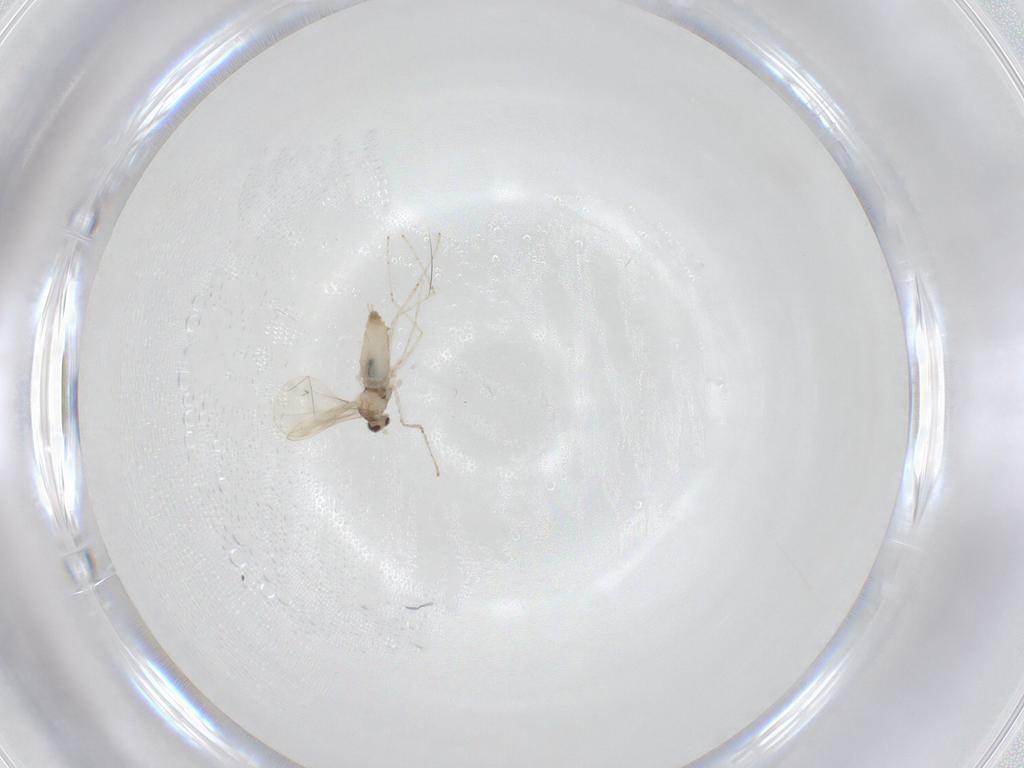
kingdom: Animalia
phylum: Arthropoda
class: Insecta
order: Diptera
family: Cecidomyiidae
